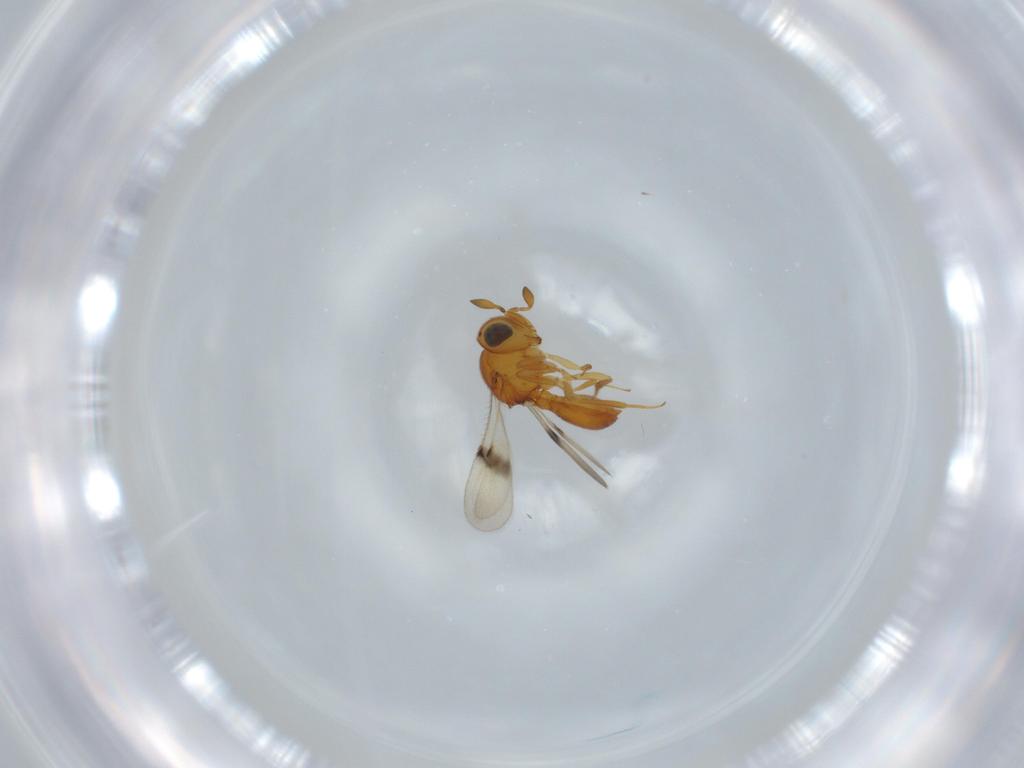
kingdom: Animalia
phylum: Arthropoda
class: Insecta
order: Hymenoptera
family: Scelionidae
